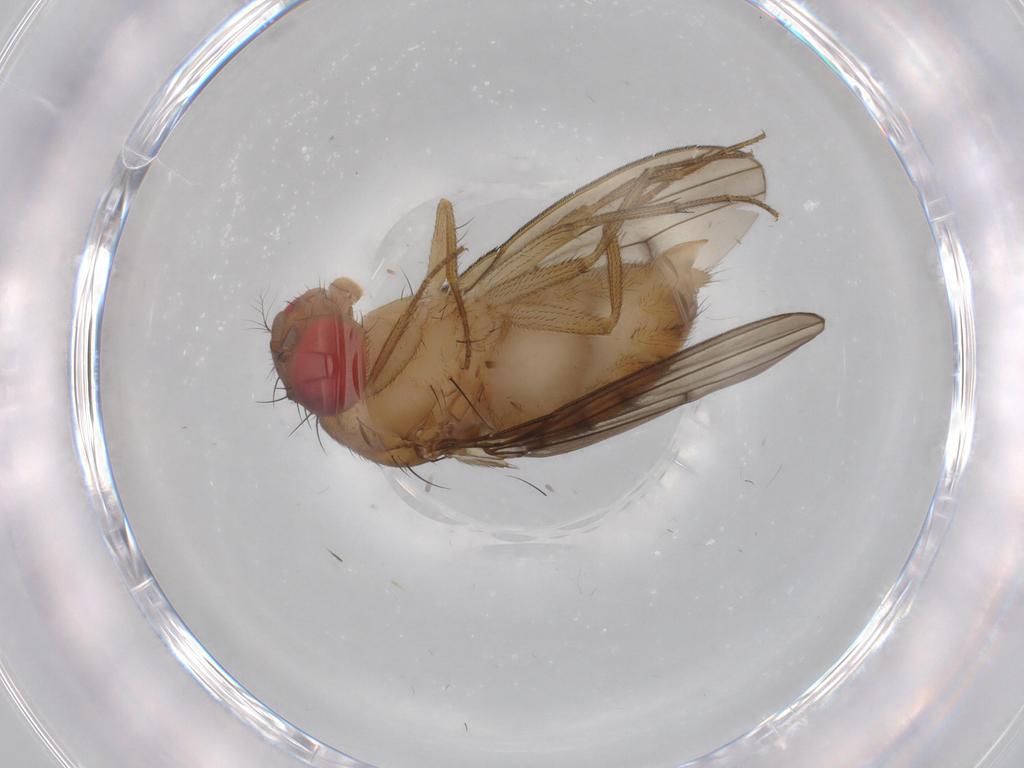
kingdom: Animalia
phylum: Arthropoda
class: Insecta
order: Diptera
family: Drosophilidae
